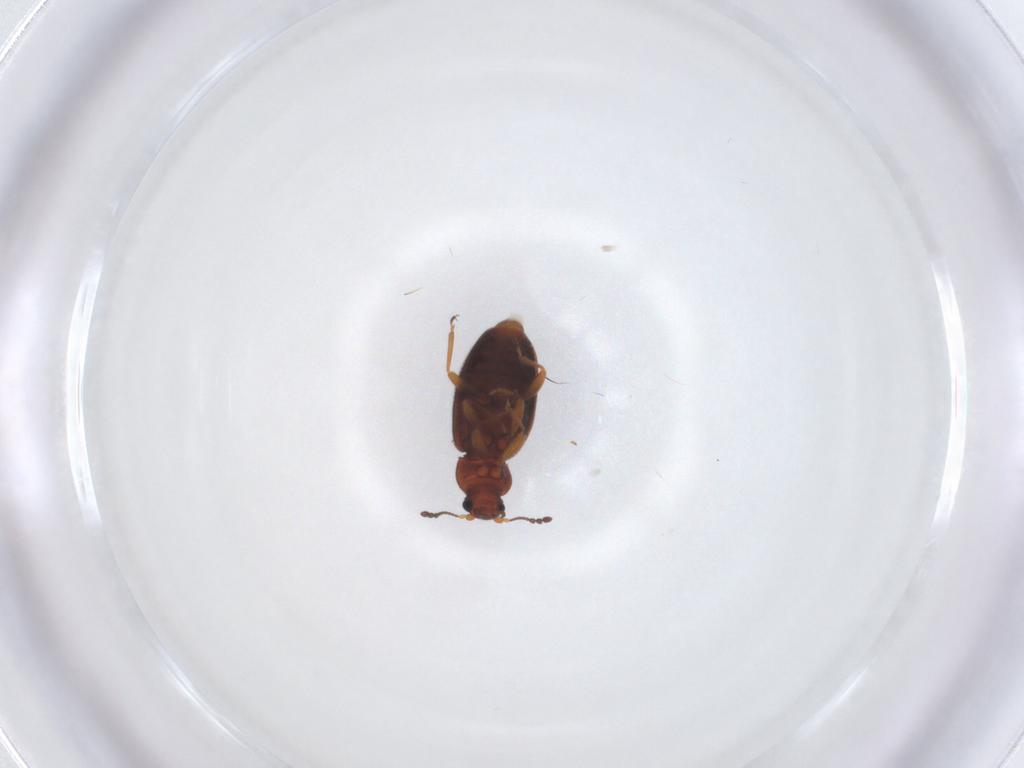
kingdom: Animalia
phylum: Arthropoda
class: Insecta
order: Coleoptera
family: Latridiidae
